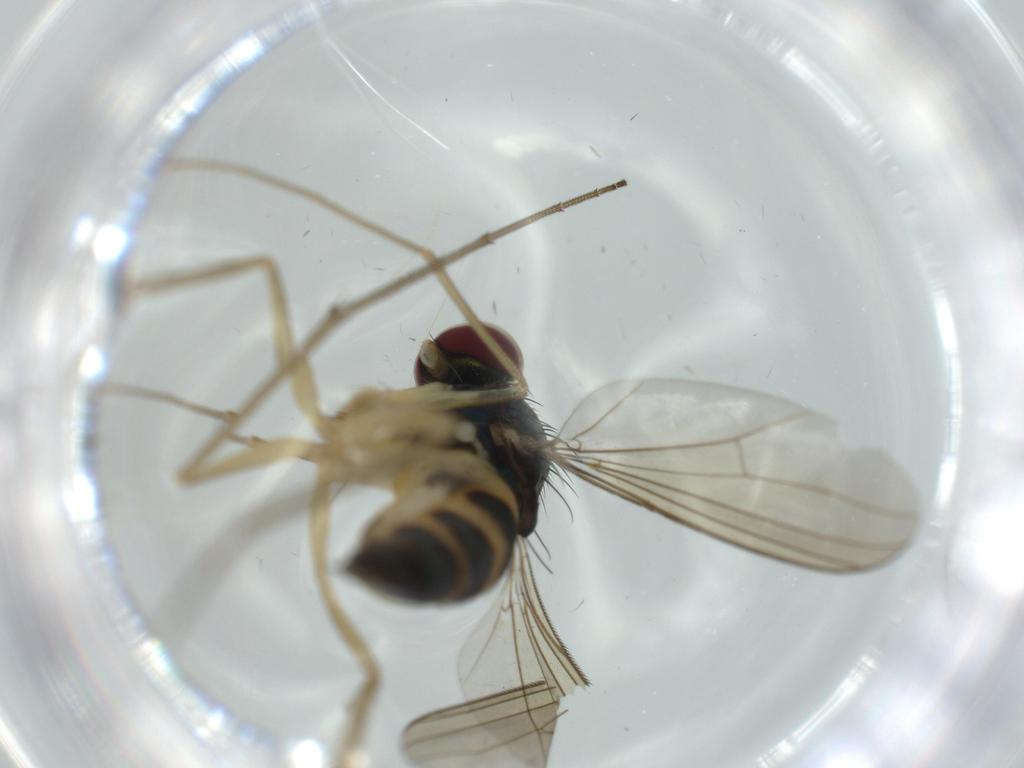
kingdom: Animalia
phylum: Arthropoda
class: Insecta
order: Diptera
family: Dolichopodidae
